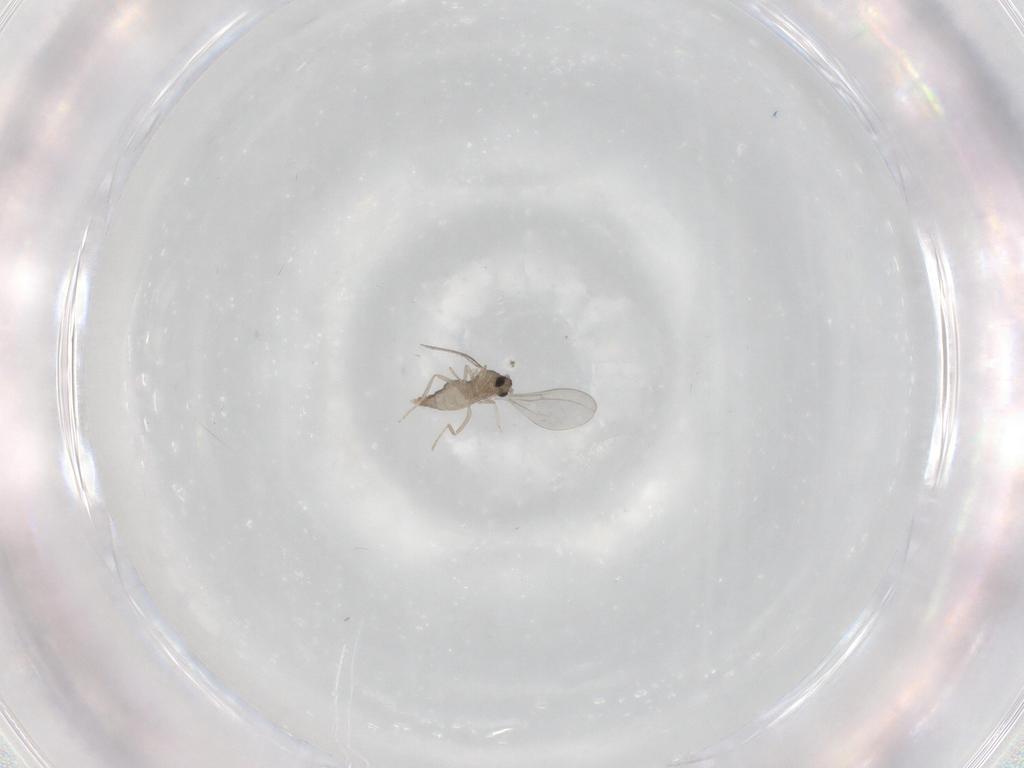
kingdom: Animalia
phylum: Arthropoda
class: Insecta
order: Diptera
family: Cecidomyiidae
